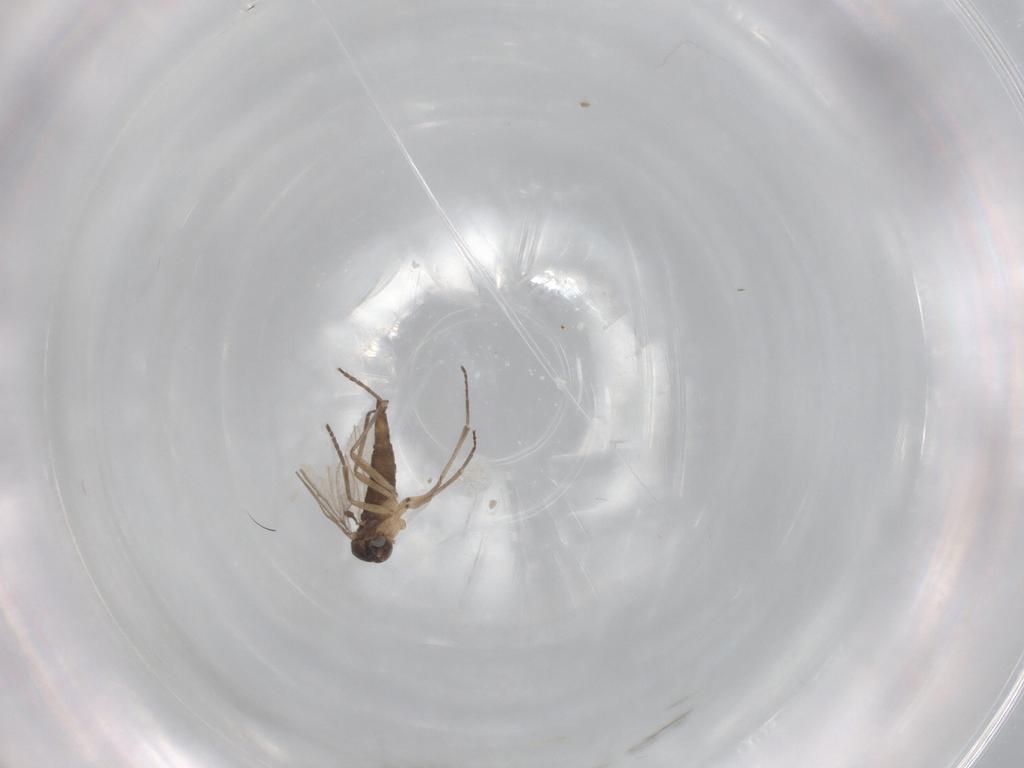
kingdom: Animalia
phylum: Arthropoda
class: Insecta
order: Diptera
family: Sciaridae
